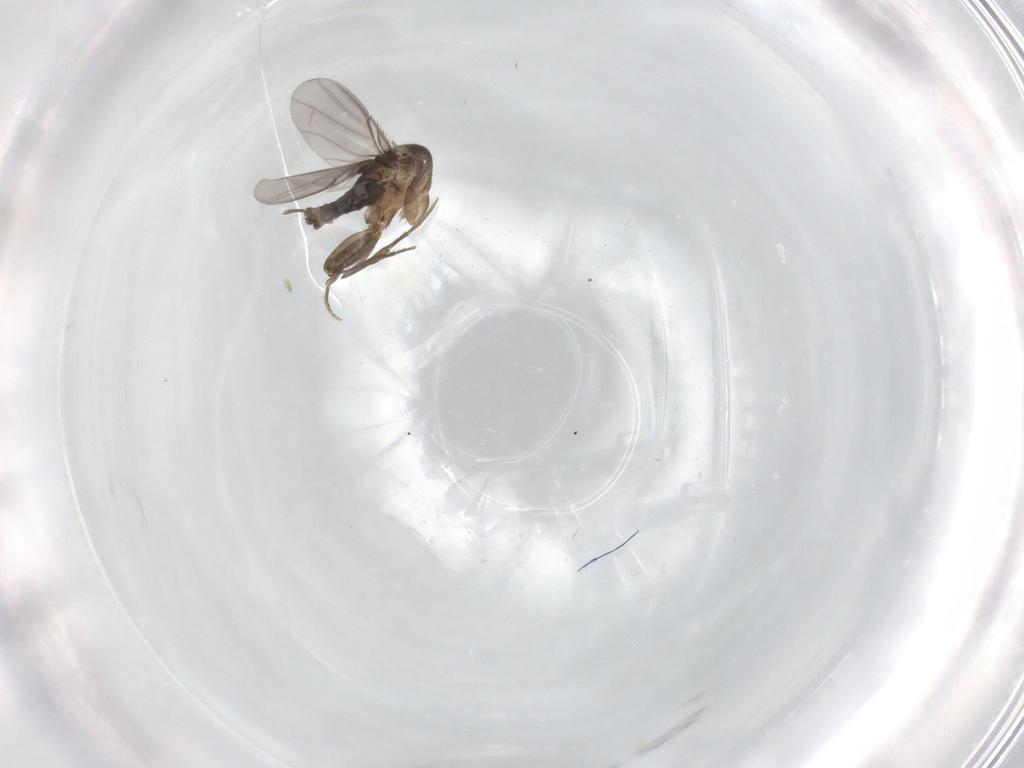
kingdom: Animalia
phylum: Arthropoda
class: Insecta
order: Diptera
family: Phoridae
